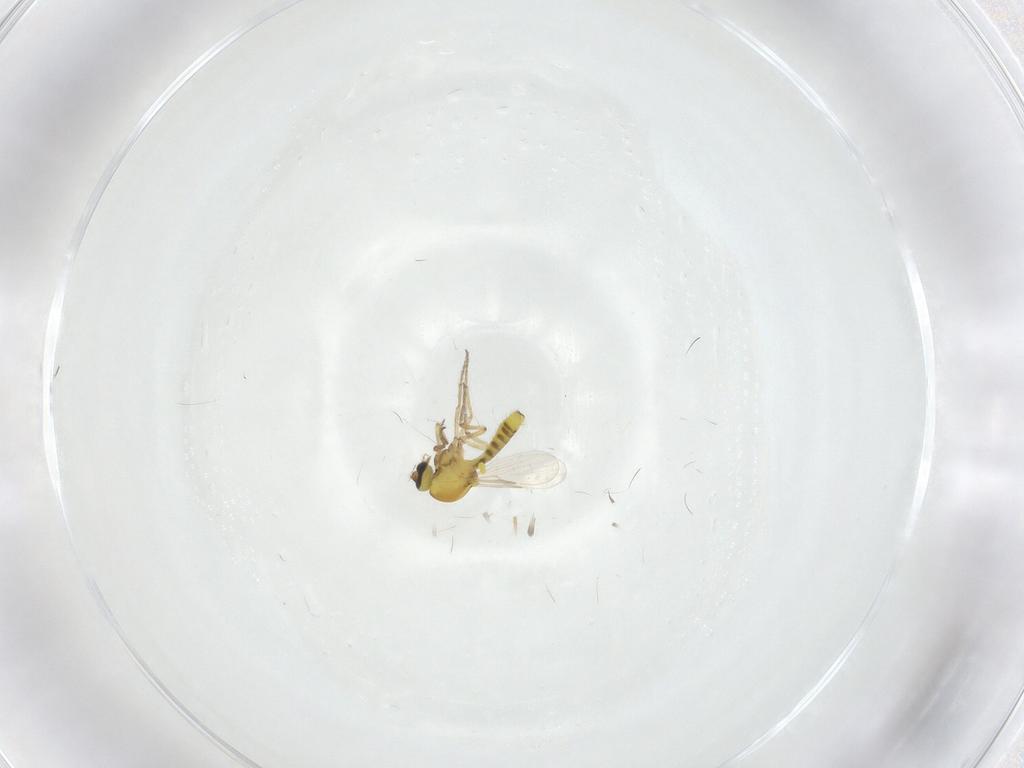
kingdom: Animalia
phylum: Arthropoda
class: Insecta
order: Diptera
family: Ceratopogonidae
